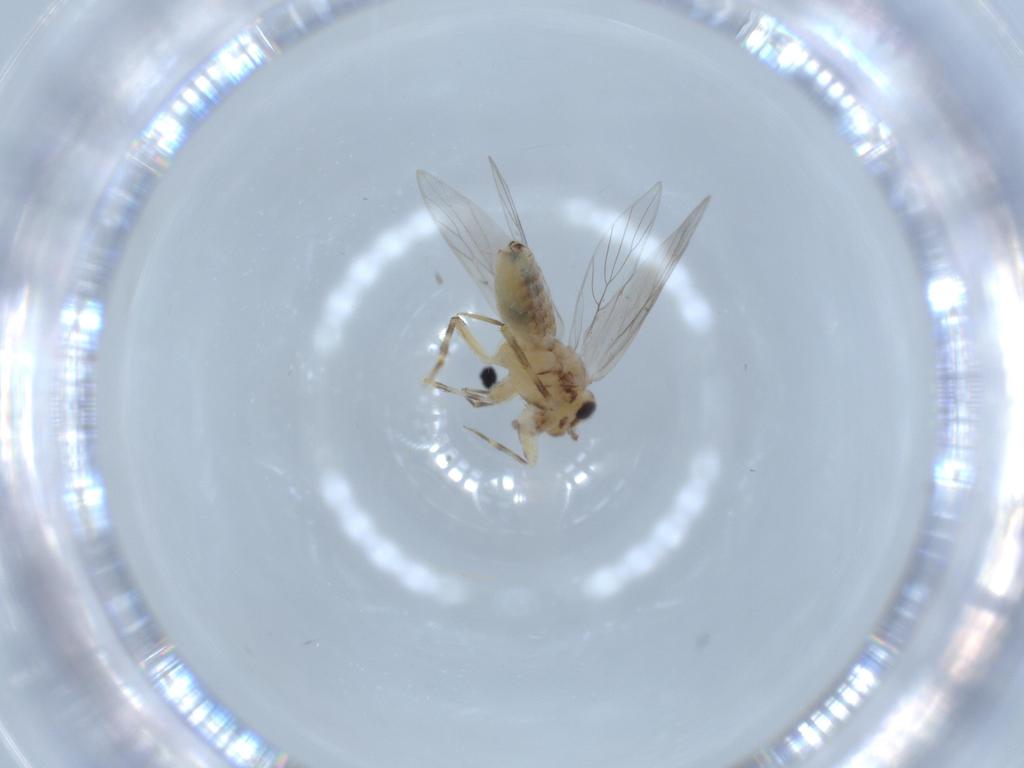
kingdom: Animalia
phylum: Arthropoda
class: Insecta
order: Psocodea
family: Lepidopsocidae
